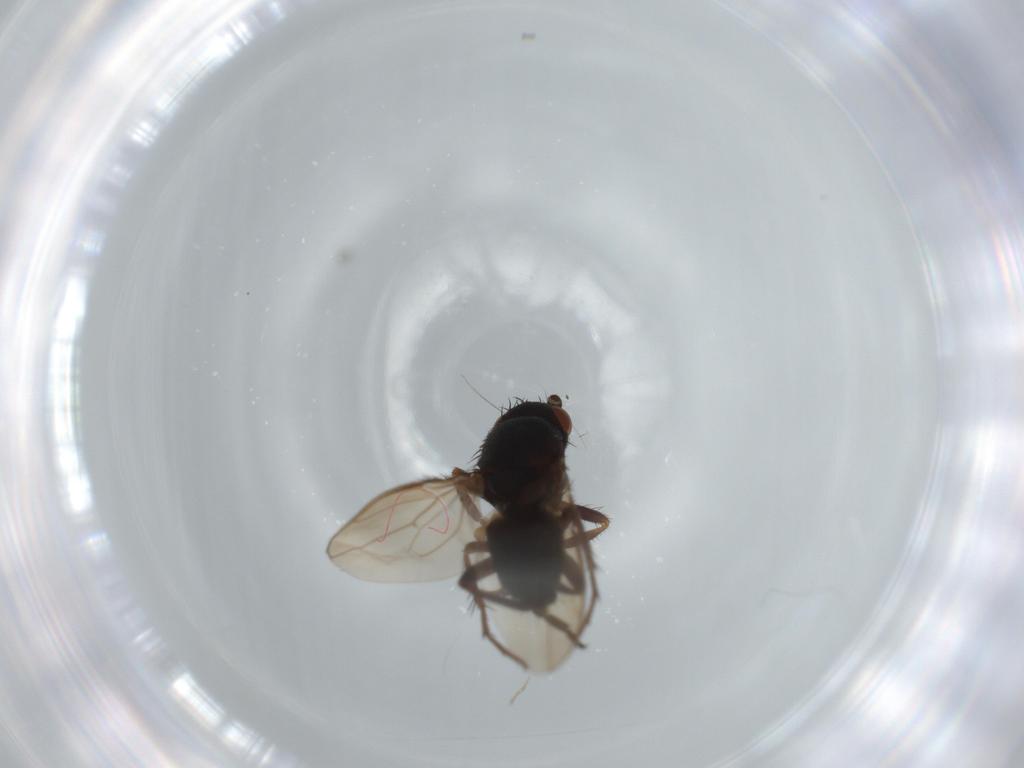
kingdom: Animalia
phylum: Arthropoda
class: Insecta
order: Diptera
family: Sphaeroceridae
